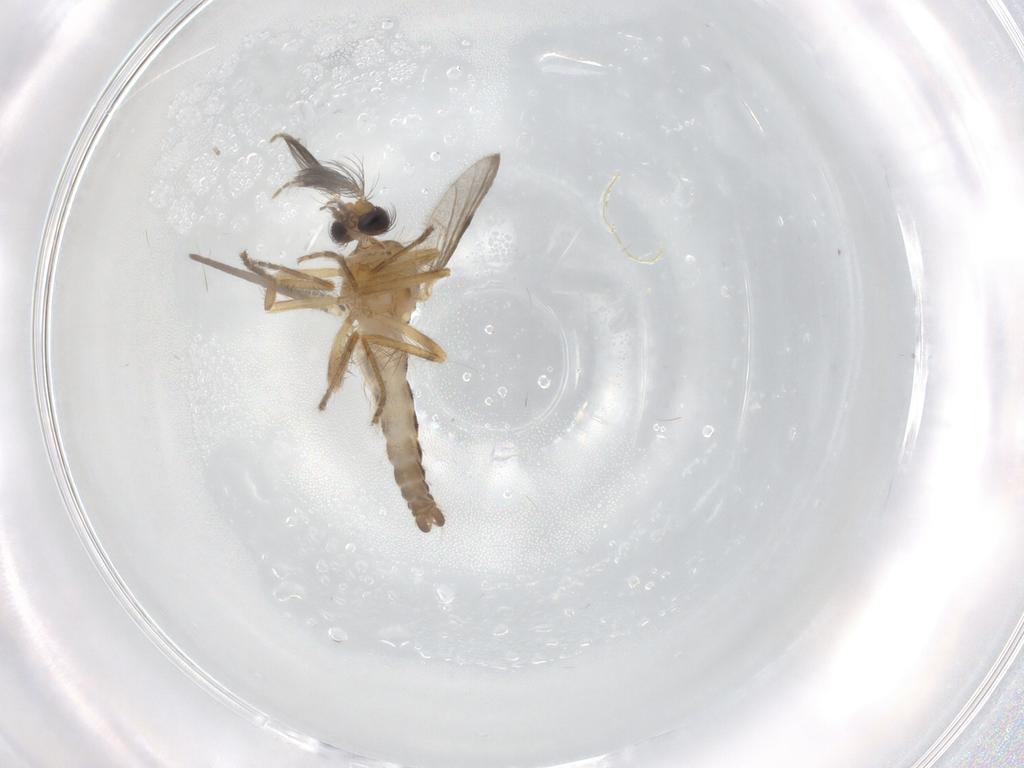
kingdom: Animalia
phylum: Arthropoda
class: Insecta
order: Diptera
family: Ceratopogonidae
